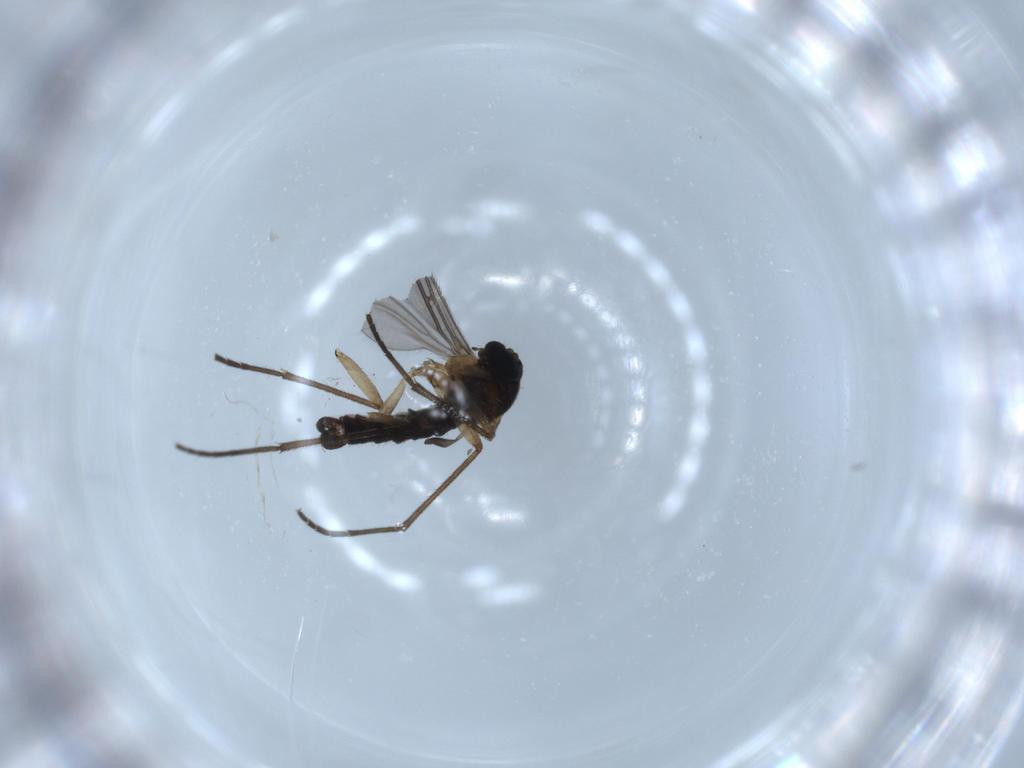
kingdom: Animalia
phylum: Arthropoda
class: Insecta
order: Diptera
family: Sciaridae
